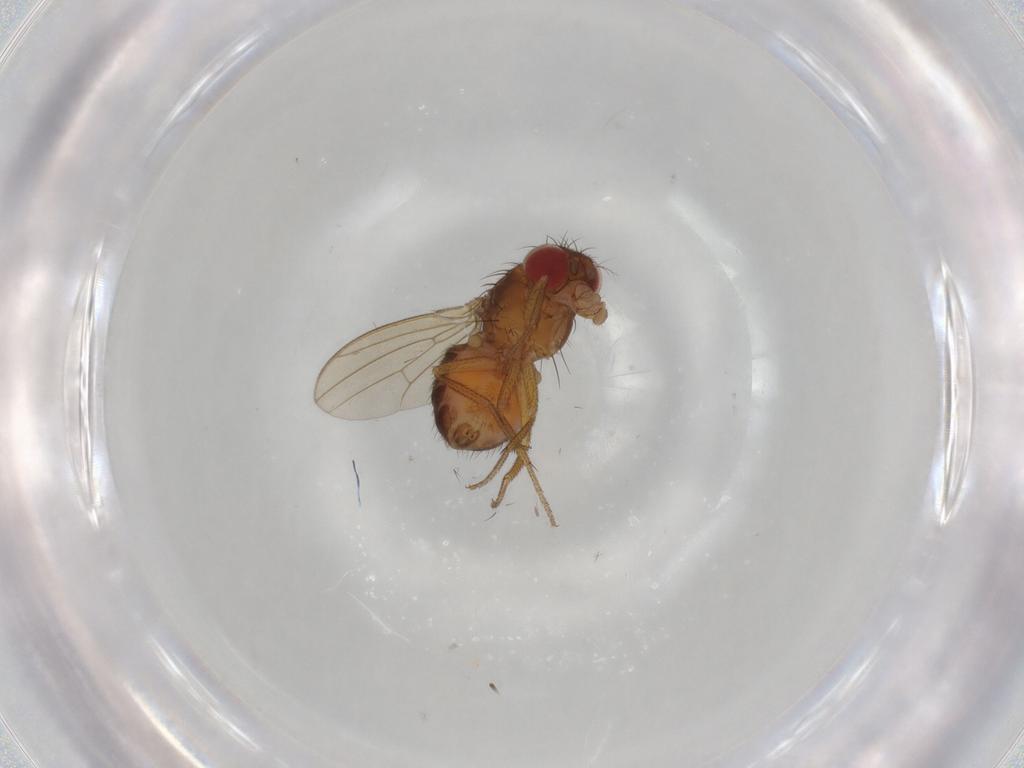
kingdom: Animalia
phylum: Arthropoda
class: Insecta
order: Diptera
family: Drosophilidae
